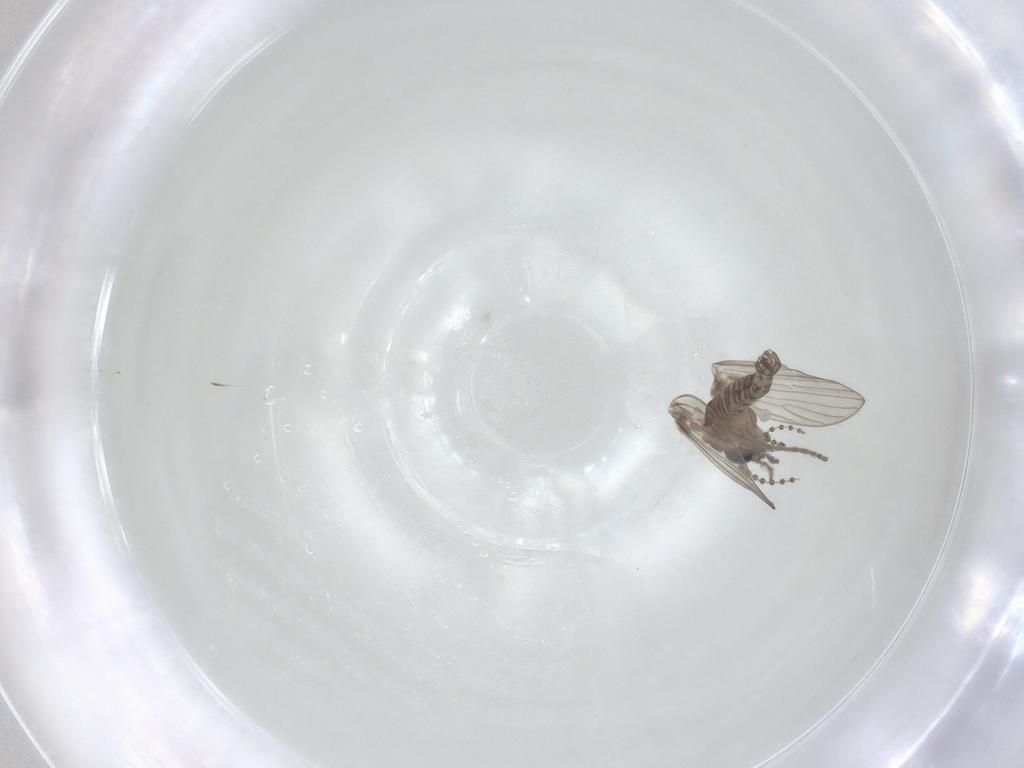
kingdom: Animalia
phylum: Arthropoda
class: Insecta
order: Diptera
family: Psychodidae
